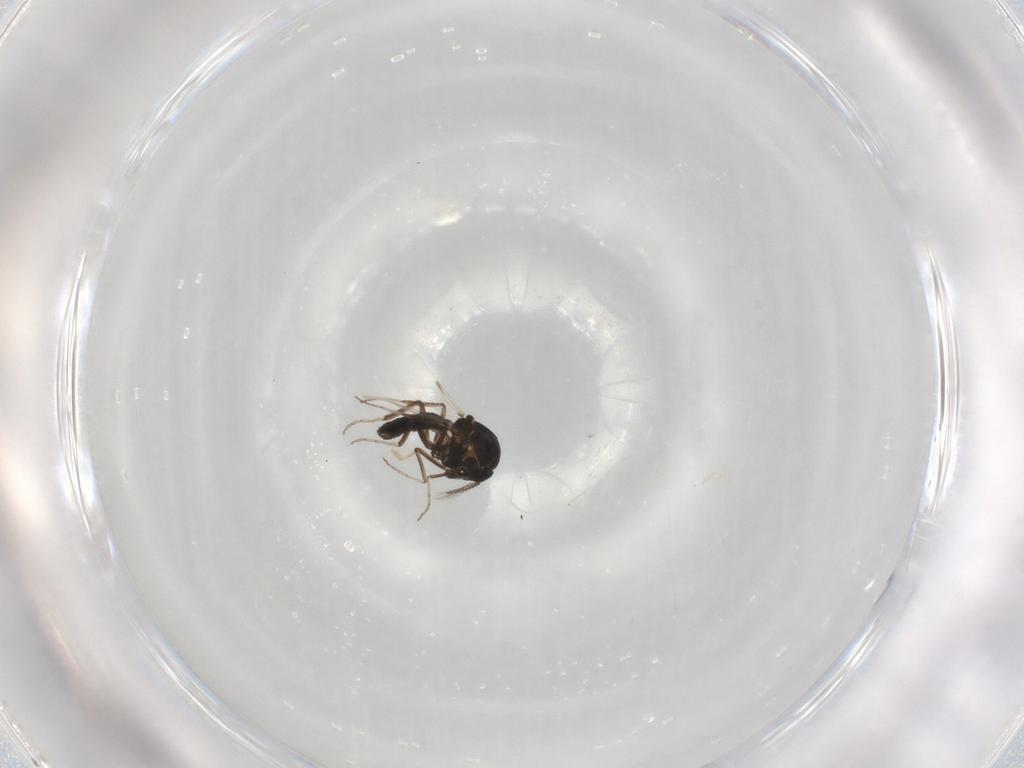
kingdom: Animalia
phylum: Arthropoda
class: Insecta
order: Diptera
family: Ceratopogonidae
